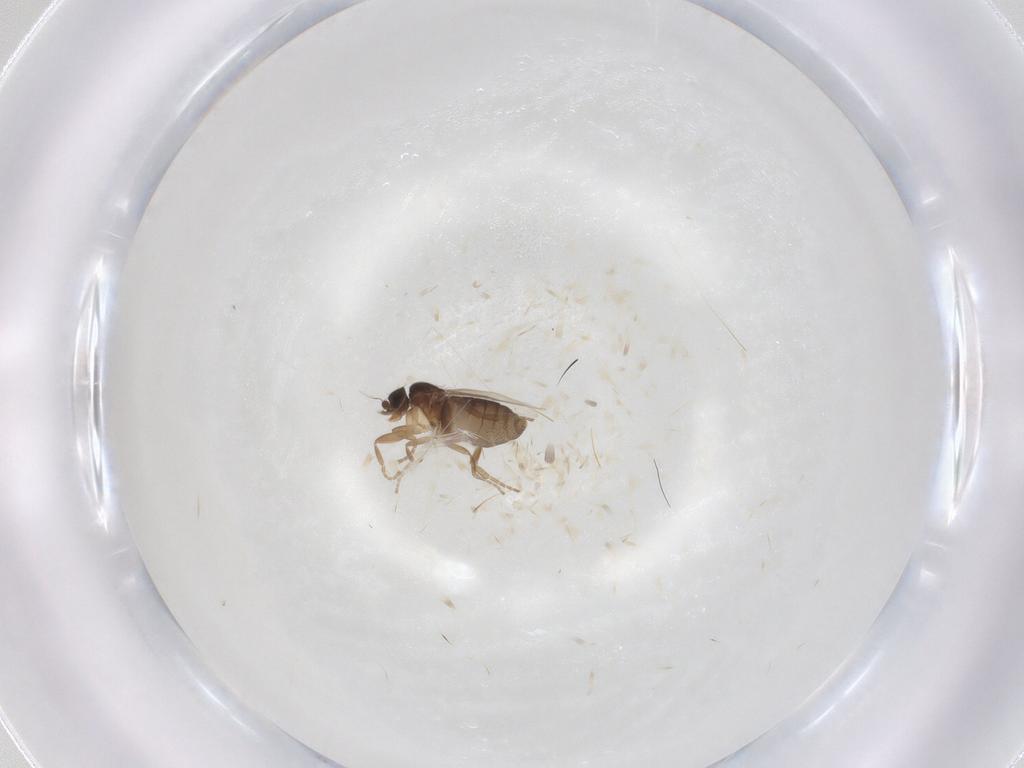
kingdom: Animalia
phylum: Arthropoda
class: Insecta
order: Diptera
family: Phoridae
